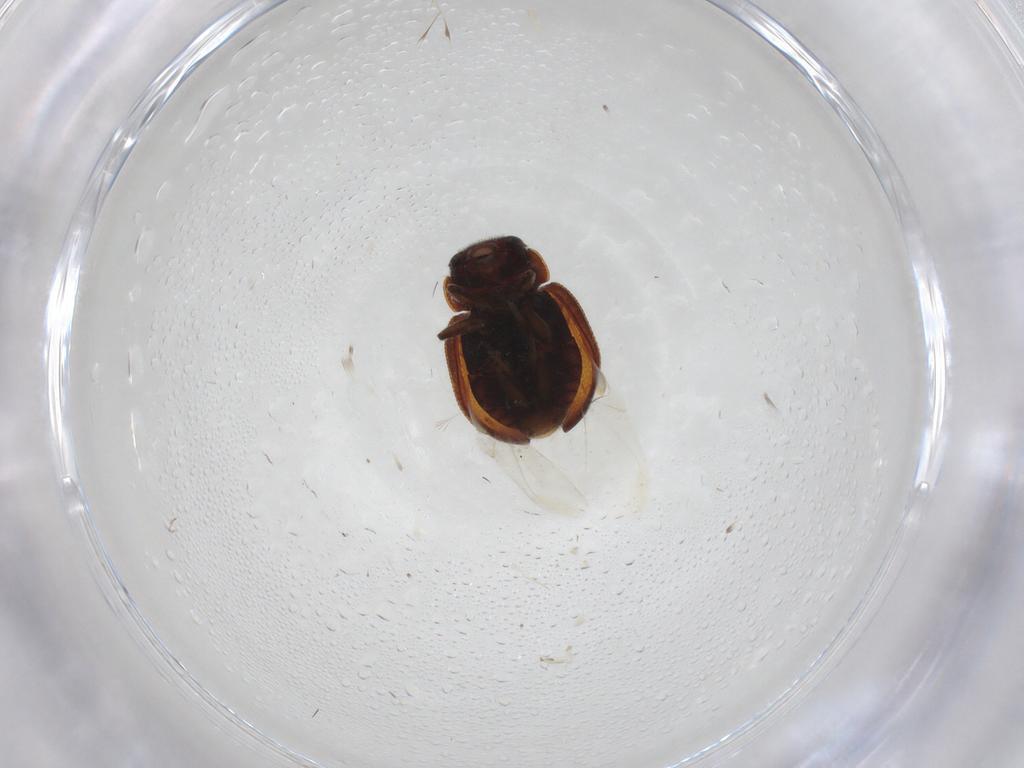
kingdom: Animalia
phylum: Arthropoda
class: Insecta
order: Coleoptera
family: Coccinellidae
